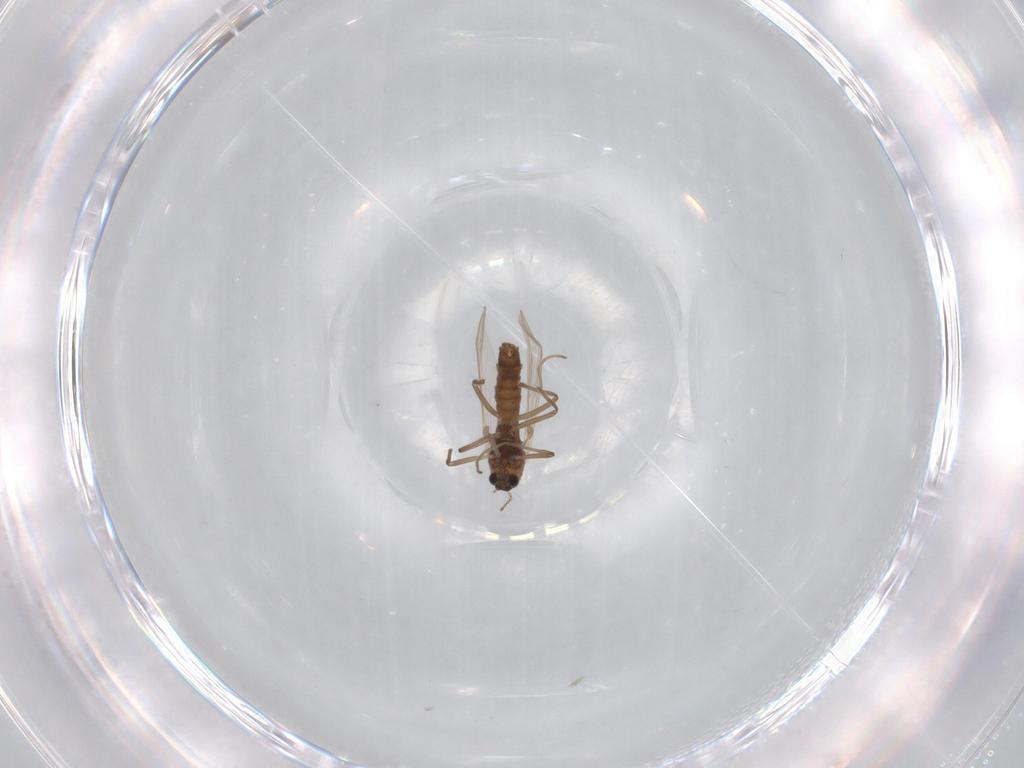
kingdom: Animalia
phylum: Arthropoda
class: Insecta
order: Diptera
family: Chironomidae
